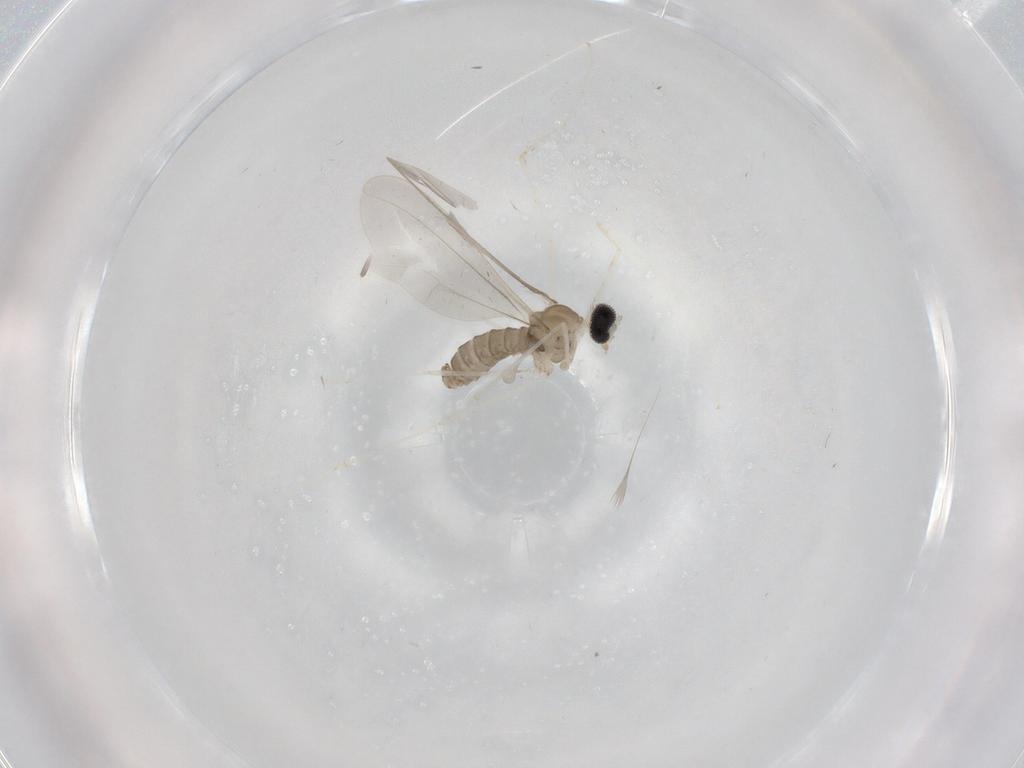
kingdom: Animalia
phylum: Arthropoda
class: Insecta
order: Diptera
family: Cecidomyiidae
